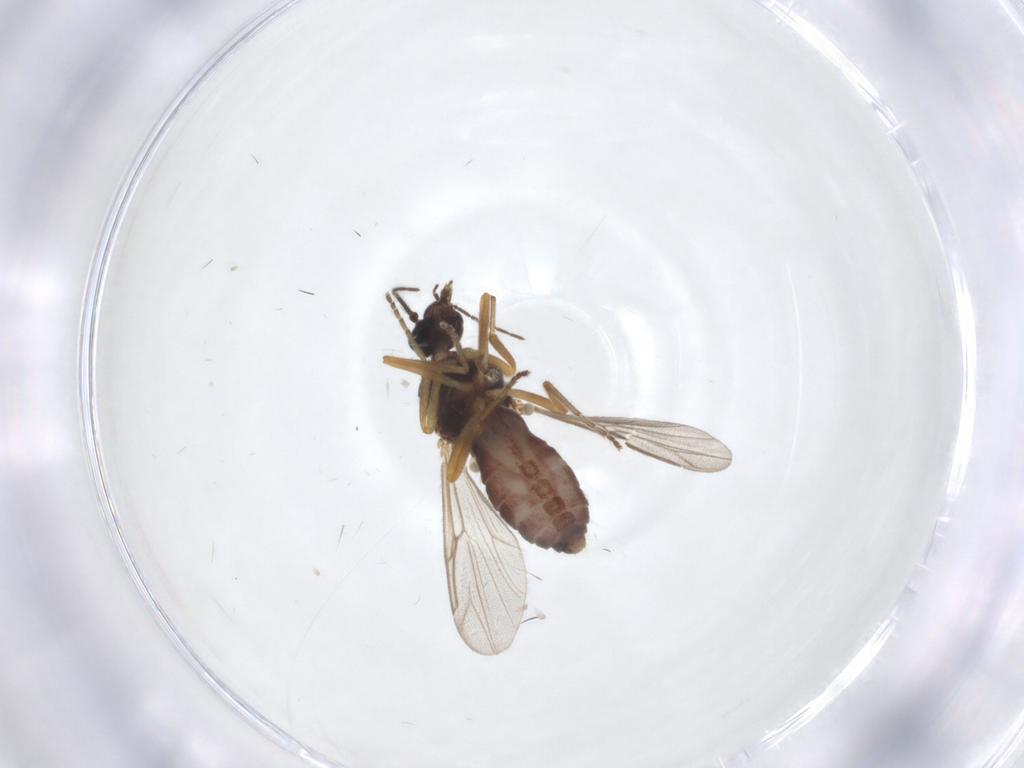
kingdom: Animalia
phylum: Arthropoda
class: Insecta
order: Diptera
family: Ceratopogonidae
